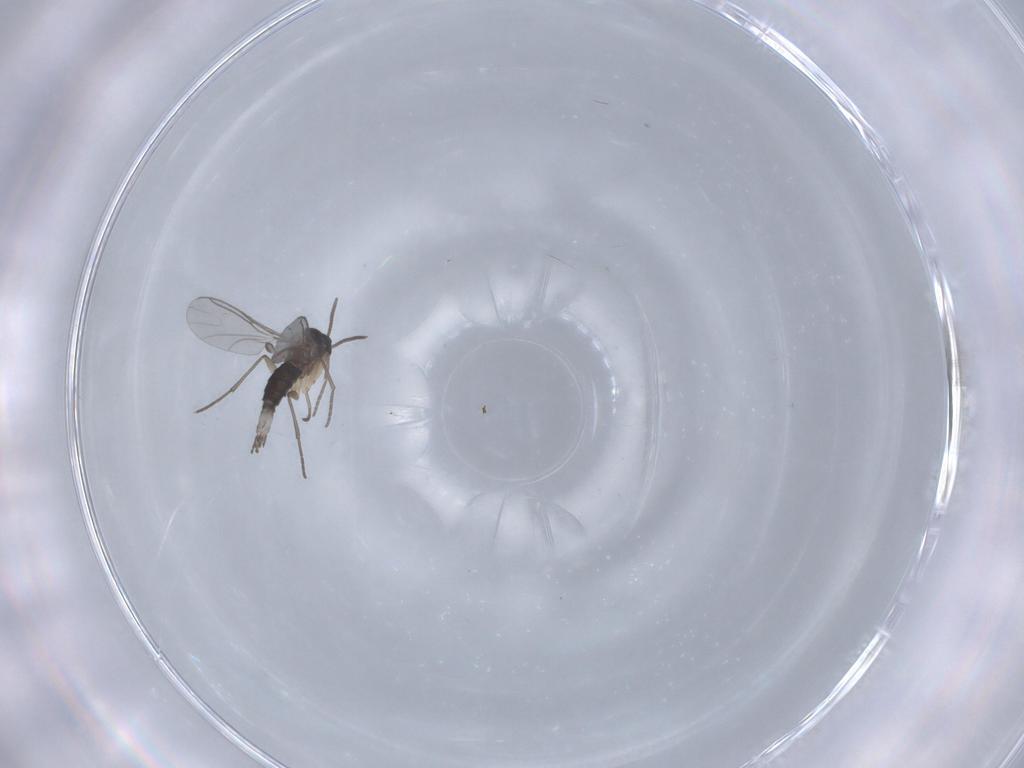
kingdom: Animalia
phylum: Arthropoda
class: Insecta
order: Diptera
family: Sciaridae
